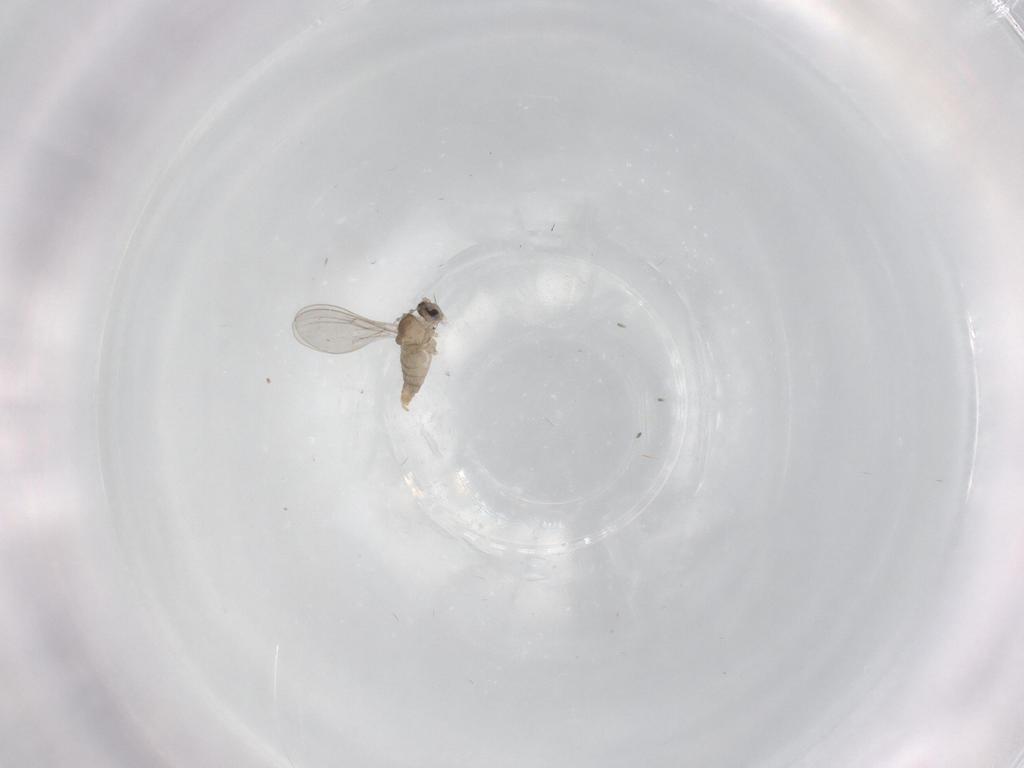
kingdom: Animalia
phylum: Arthropoda
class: Insecta
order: Diptera
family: Cecidomyiidae
